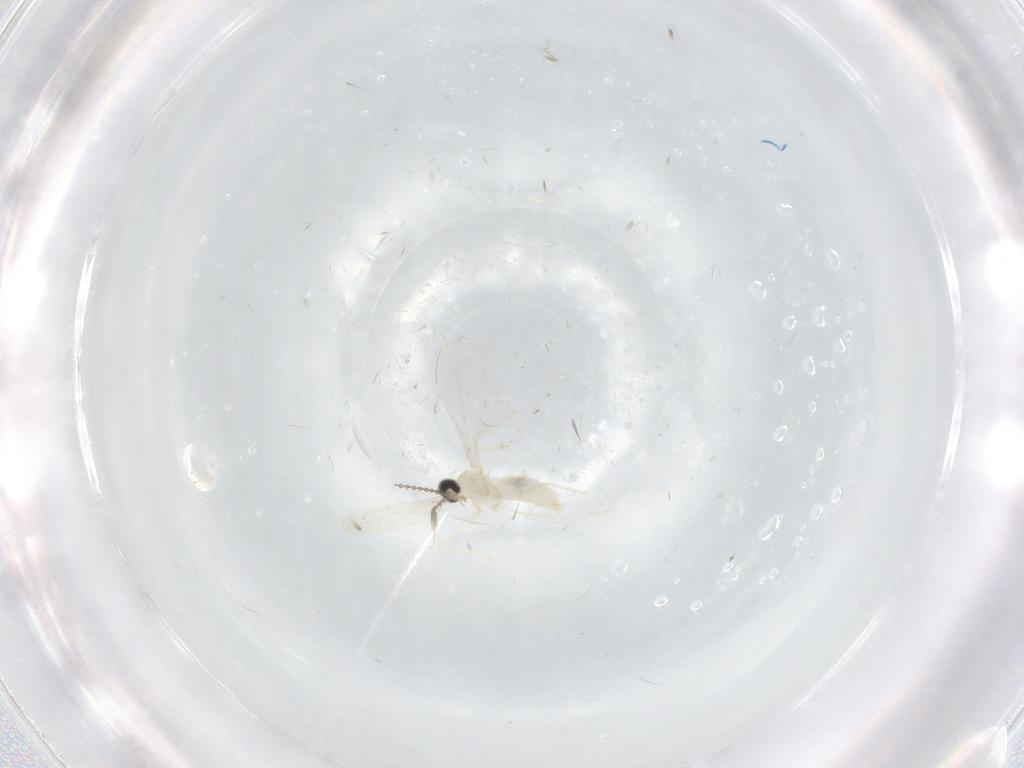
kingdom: Animalia
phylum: Arthropoda
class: Insecta
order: Diptera
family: Cecidomyiidae
